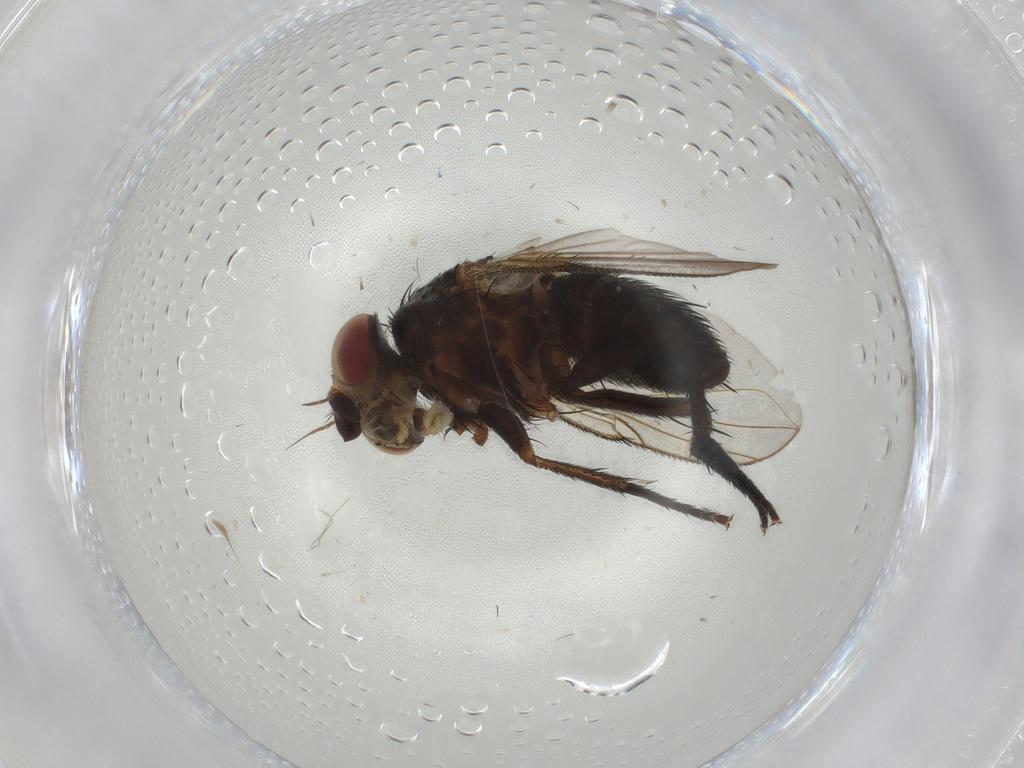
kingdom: Animalia
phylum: Arthropoda
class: Insecta
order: Diptera
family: Tachinidae
